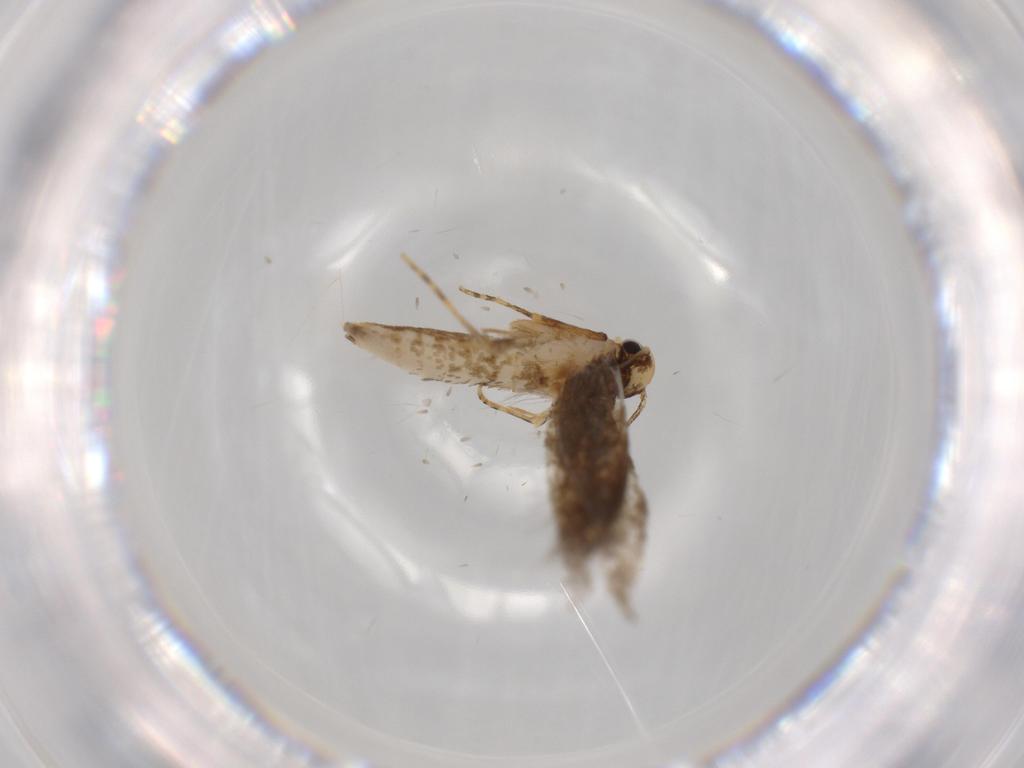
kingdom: Animalia
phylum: Arthropoda
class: Insecta
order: Lepidoptera
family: Tineidae
